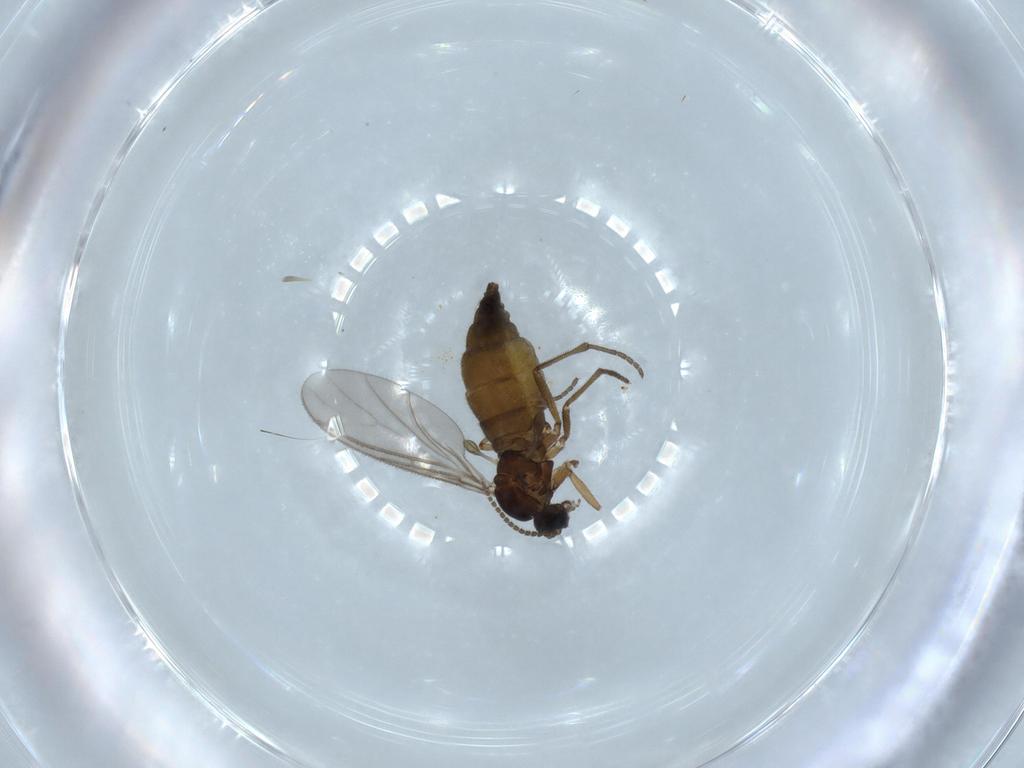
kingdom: Animalia
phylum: Arthropoda
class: Insecta
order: Diptera
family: Sciaridae
